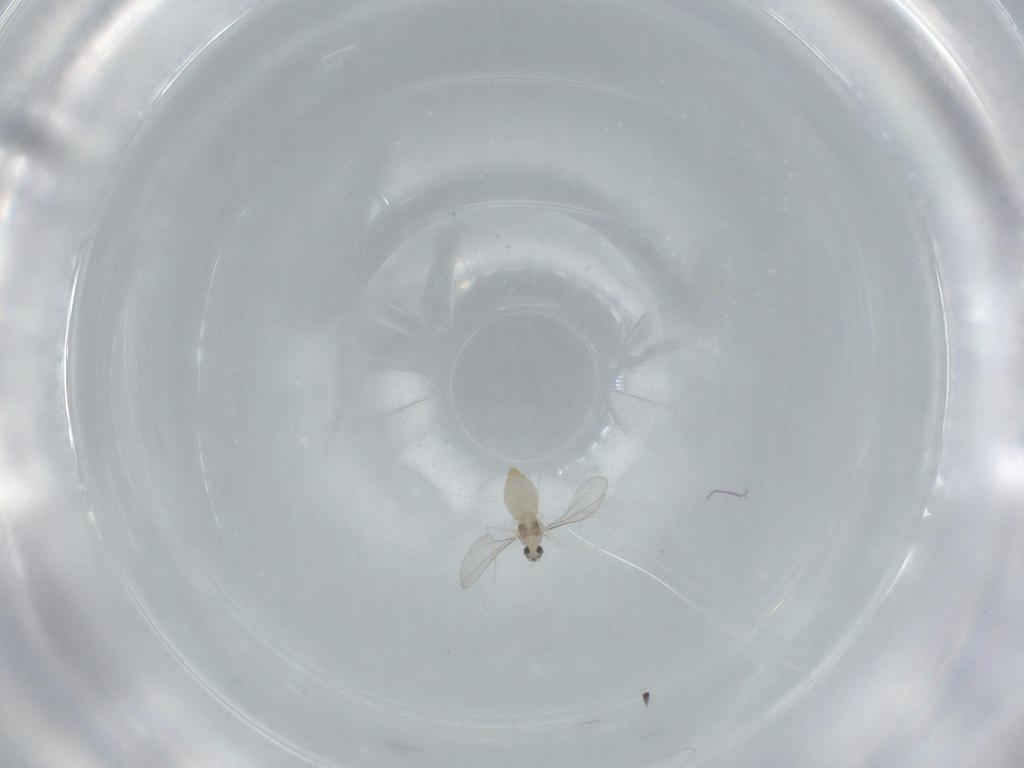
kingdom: Animalia
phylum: Arthropoda
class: Insecta
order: Diptera
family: Cecidomyiidae
